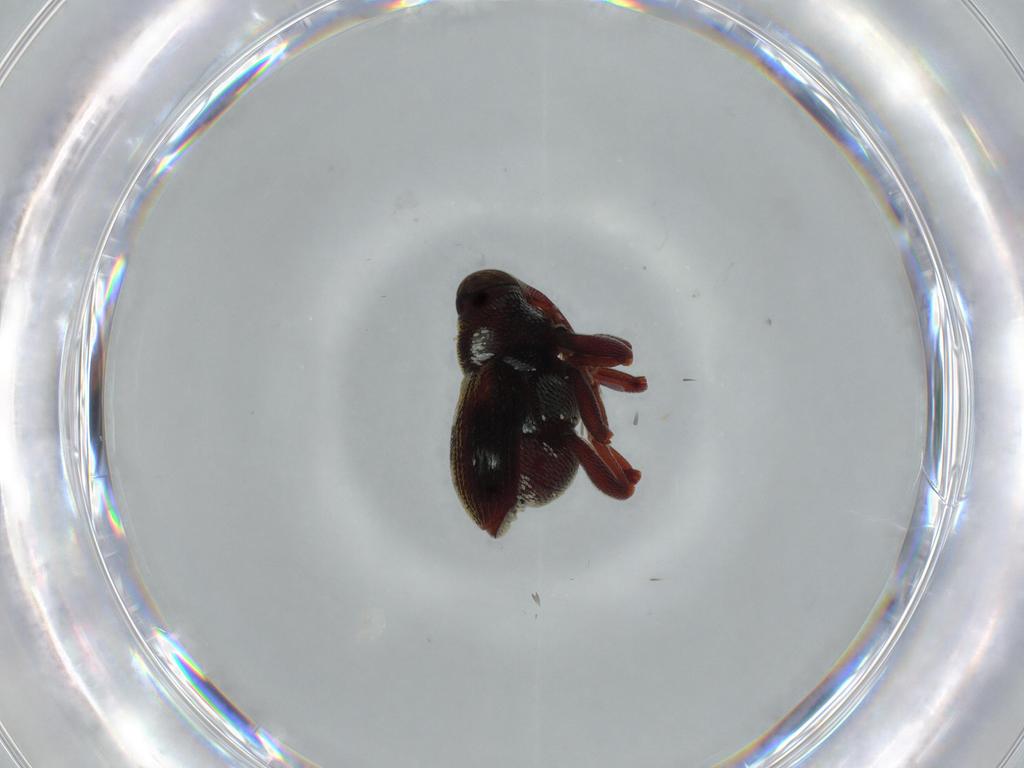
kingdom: Animalia
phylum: Arthropoda
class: Insecta
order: Coleoptera
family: Curculionidae
